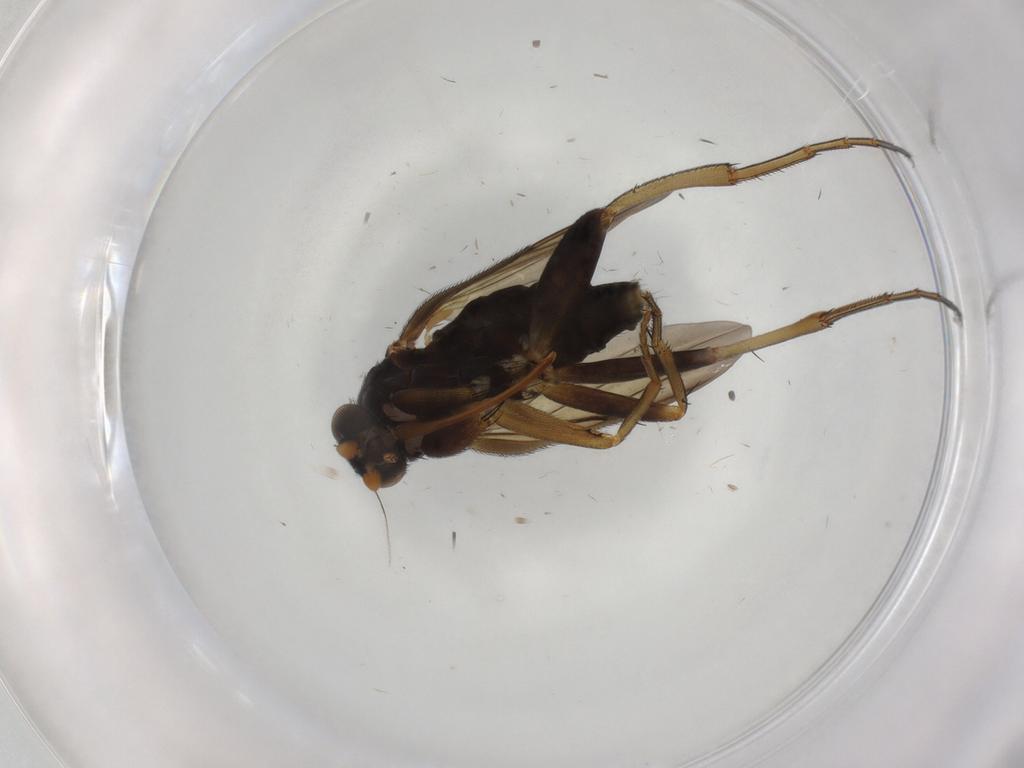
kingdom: Animalia
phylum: Arthropoda
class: Insecta
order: Diptera
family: Phoridae
